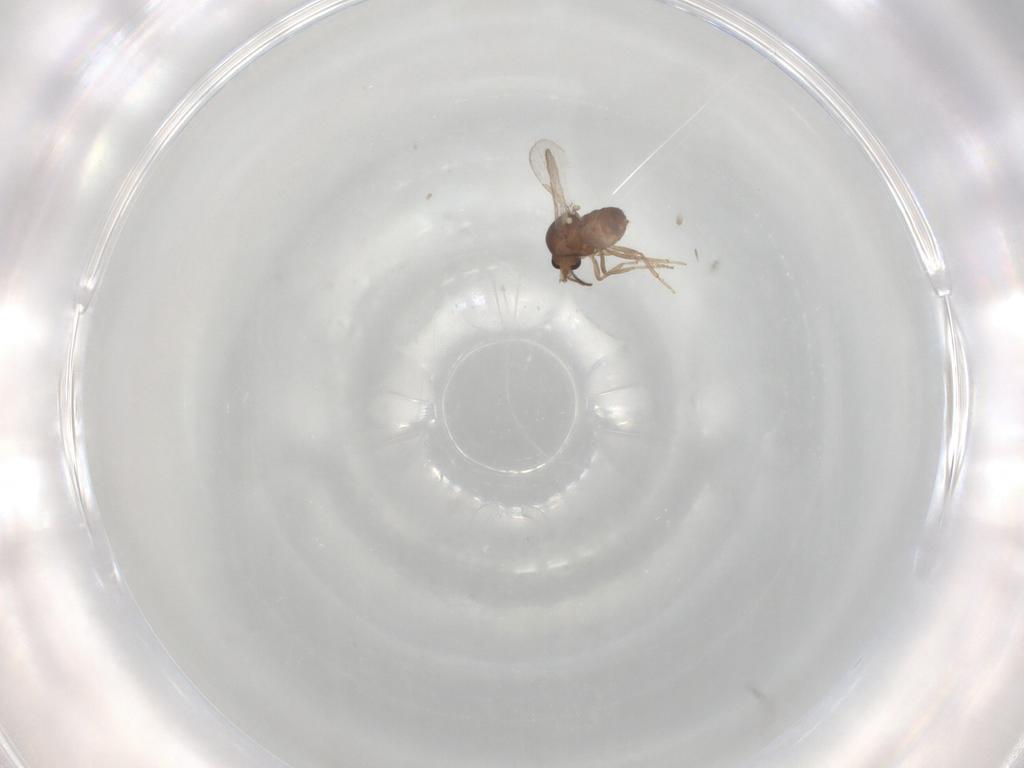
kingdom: Animalia
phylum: Arthropoda
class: Insecta
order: Diptera
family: Ceratopogonidae
